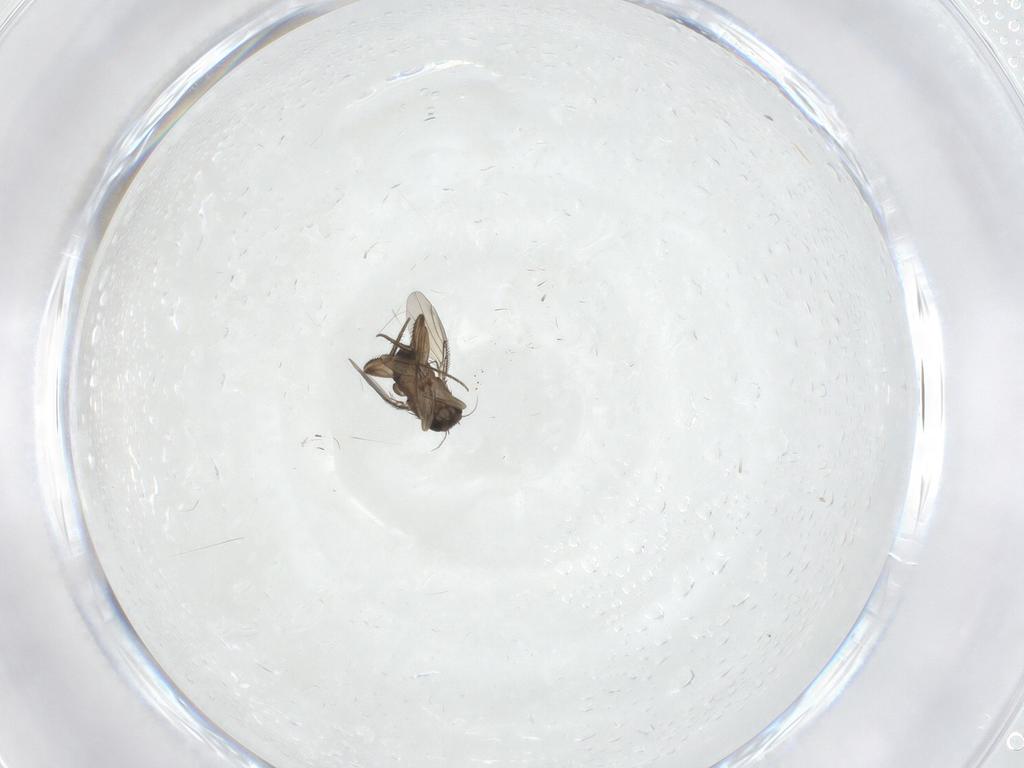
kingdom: Animalia
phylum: Arthropoda
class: Insecta
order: Diptera
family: Phoridae
